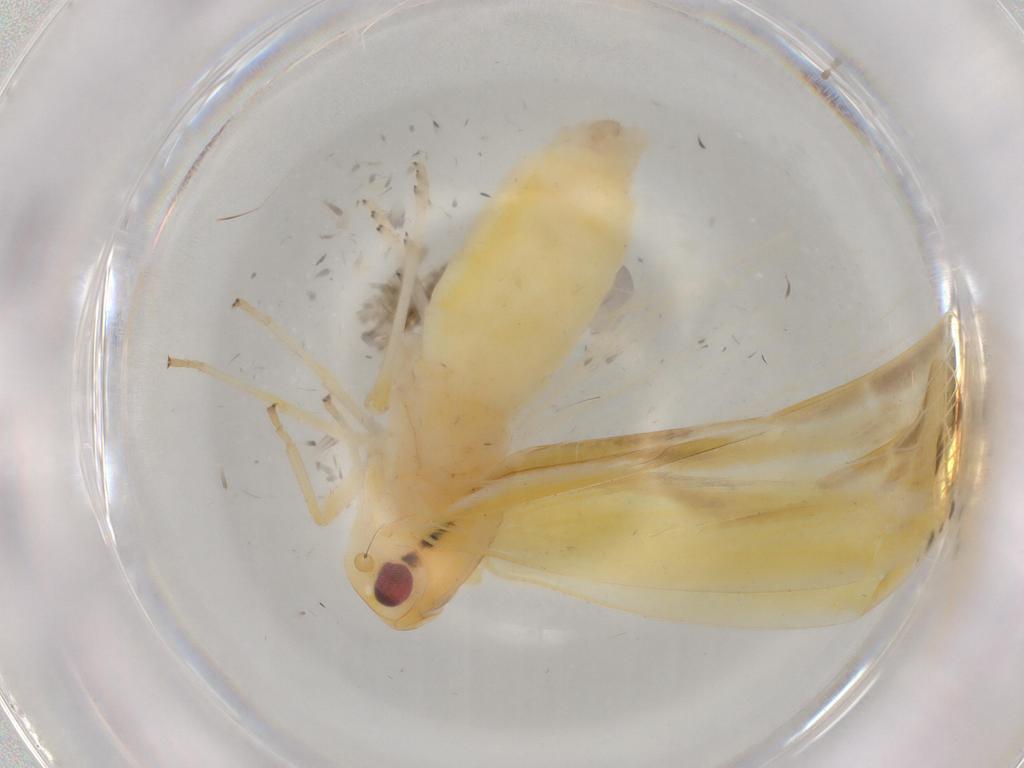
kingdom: Animalia
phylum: Arthropoda
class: Insecta
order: Hemiptera
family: Achilidae
